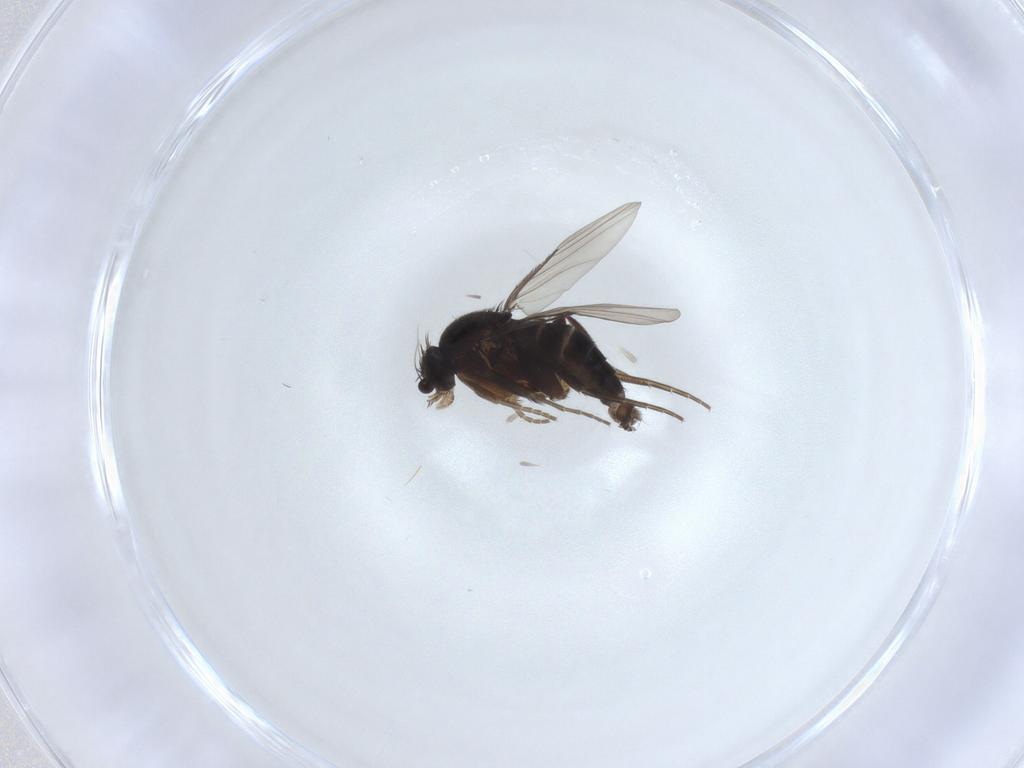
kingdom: Animalia
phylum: Arthropoda
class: Insecta
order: Diptera
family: Phoridae
